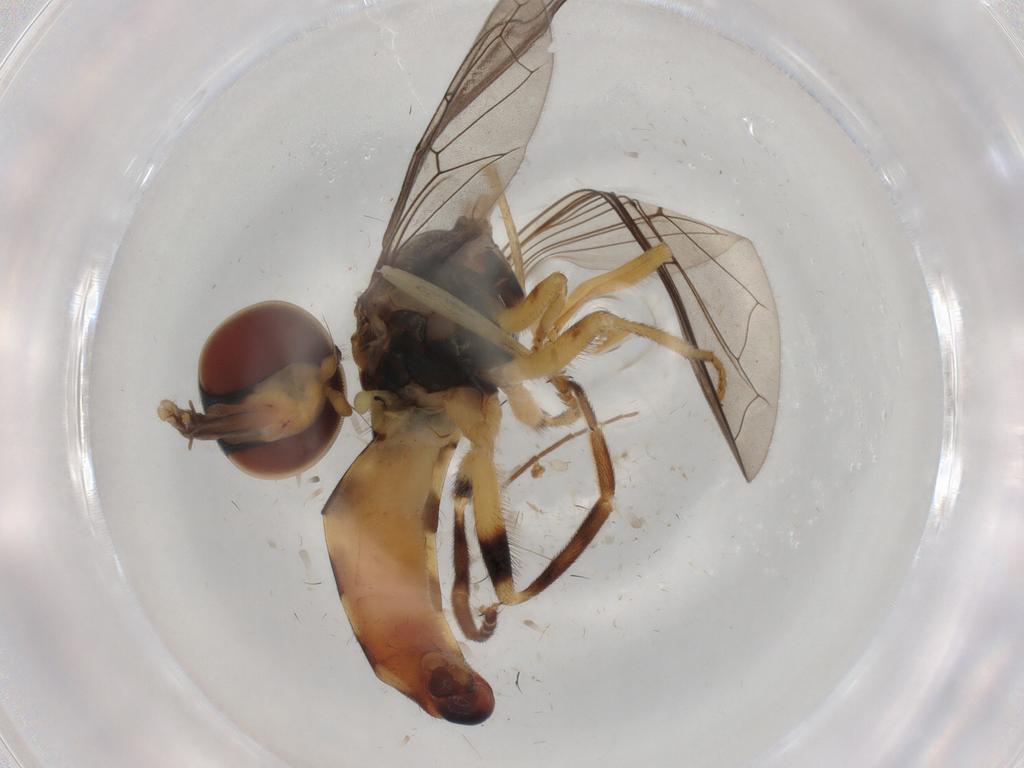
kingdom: Animalia
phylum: Arthropoda
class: Insecta
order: Diptera
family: Syrphidae
